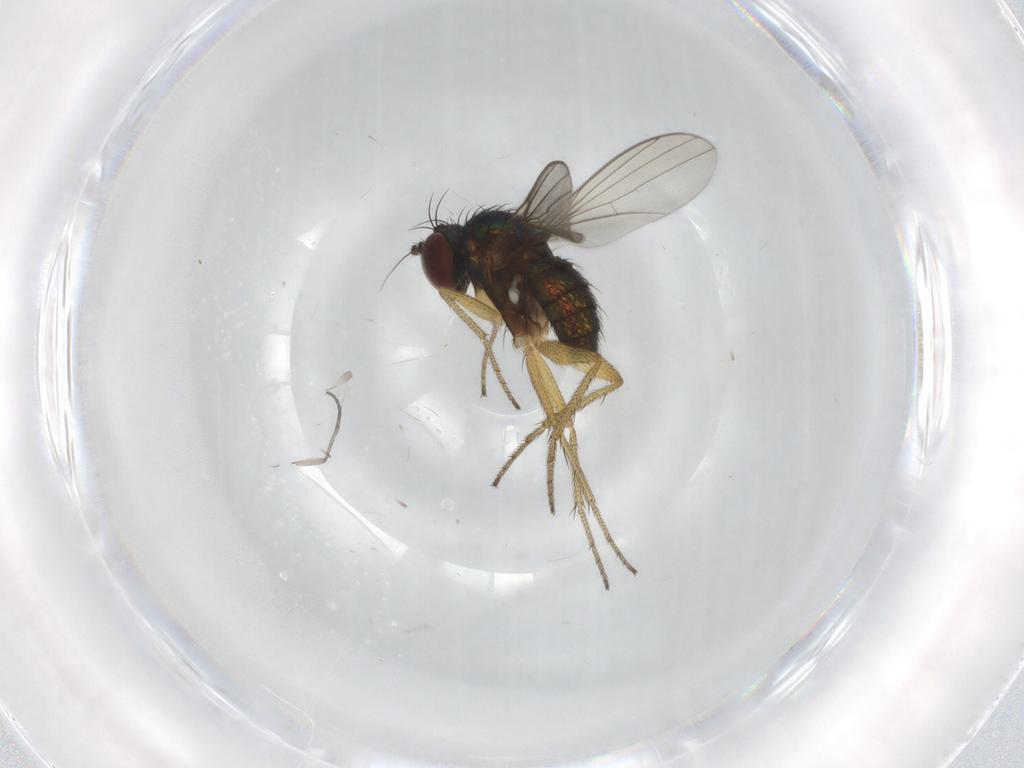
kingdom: Animalia
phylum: Arthropoda
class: Insecta
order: Diptera
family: Sciaridae
